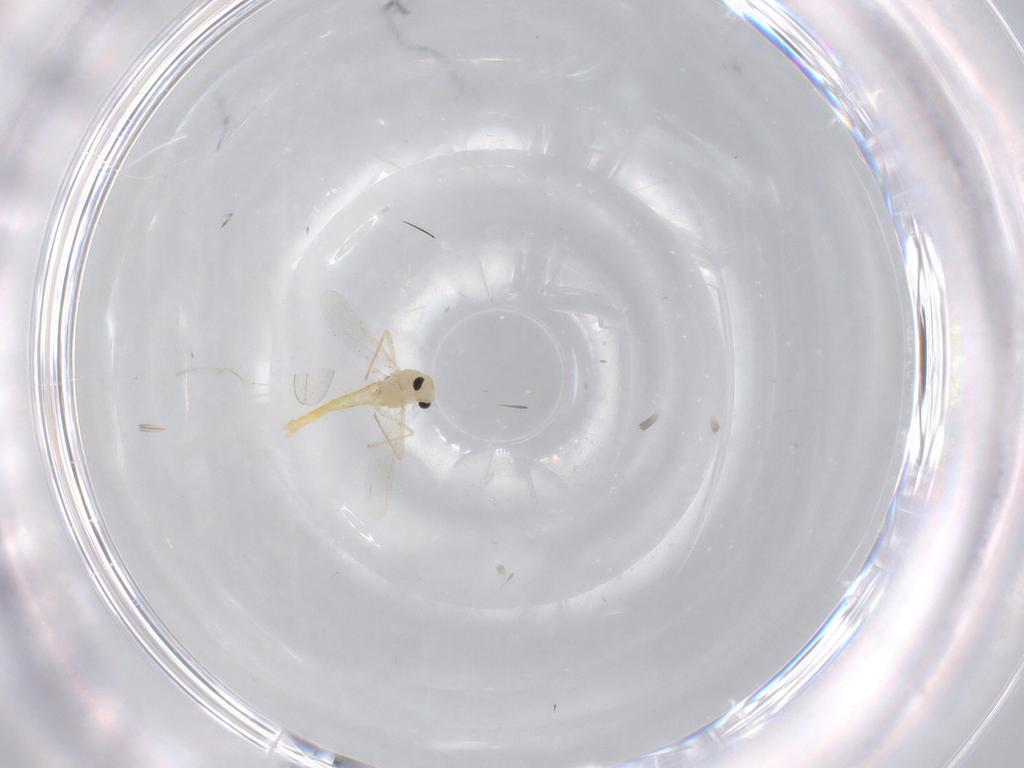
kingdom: Animalia
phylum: Arthropoda
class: Insecta
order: Diptera
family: Chironomidae
